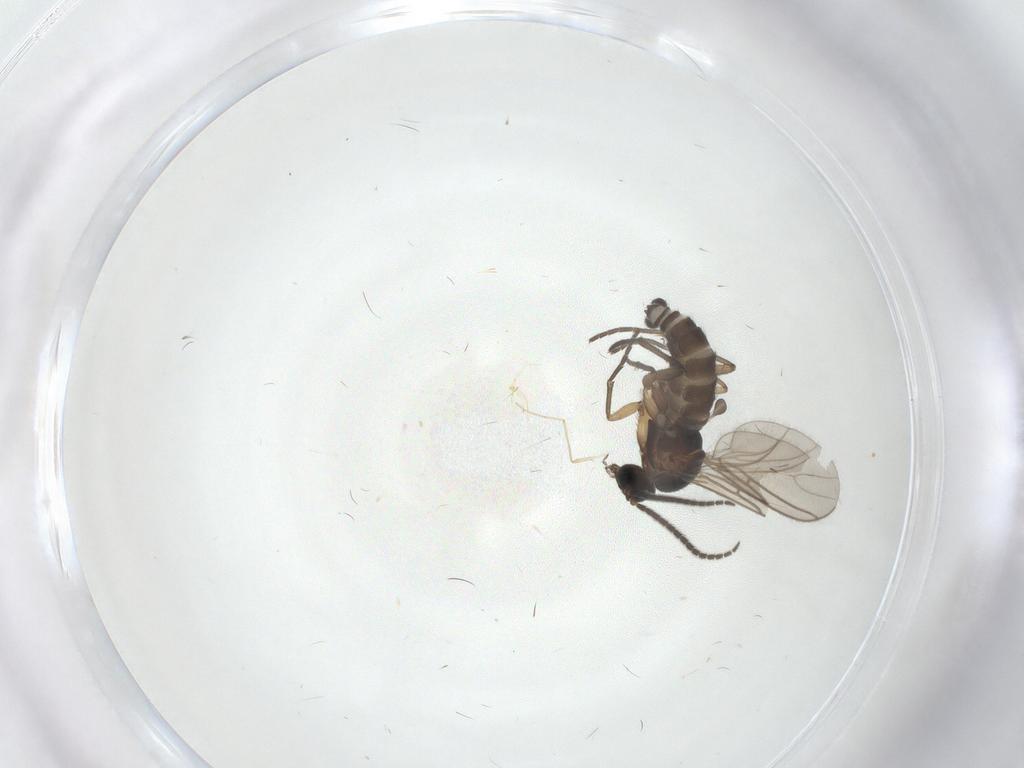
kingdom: Animalia
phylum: Arthropoda
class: Insecta
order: Diptera
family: Sciaridae
